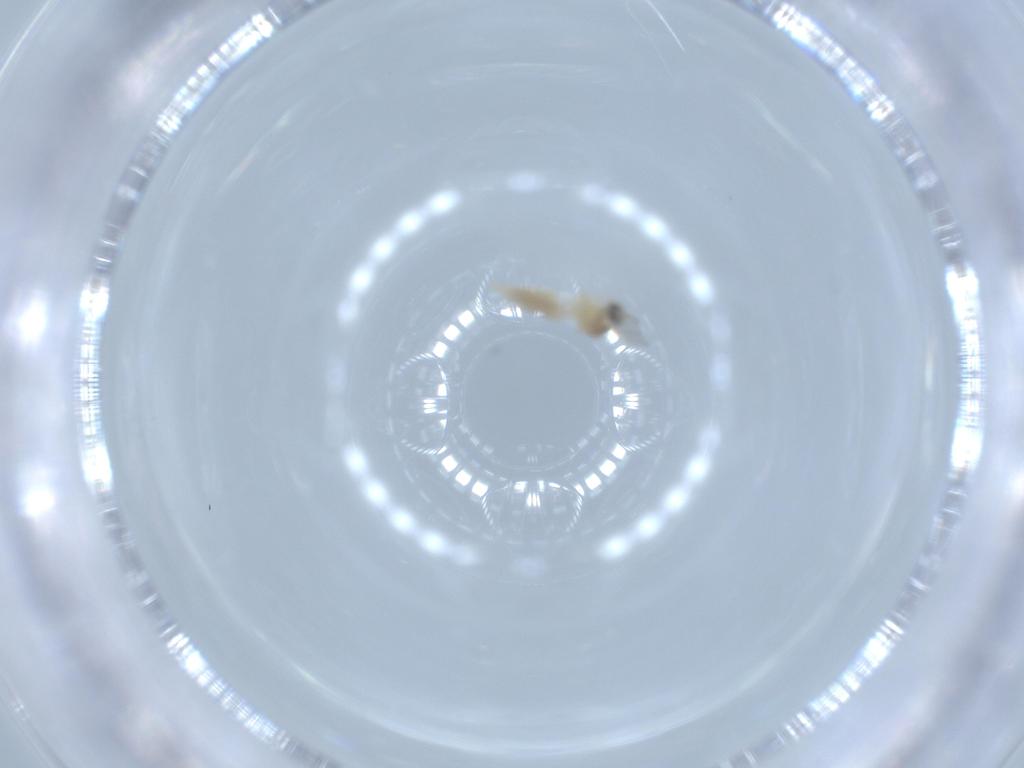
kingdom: Animalia
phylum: Arthropoda
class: Insecta
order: Diptera
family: Cecidomyiidae
